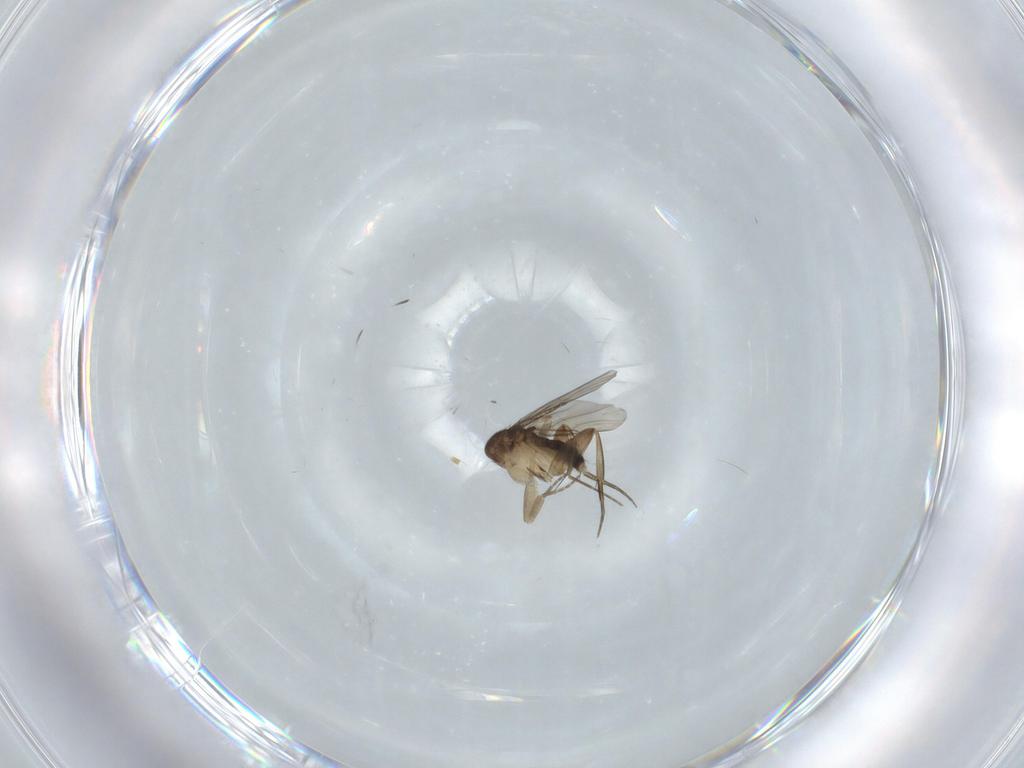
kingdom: Animalia
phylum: Arthropoda
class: Insecta
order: Diptera
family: Phoridae
